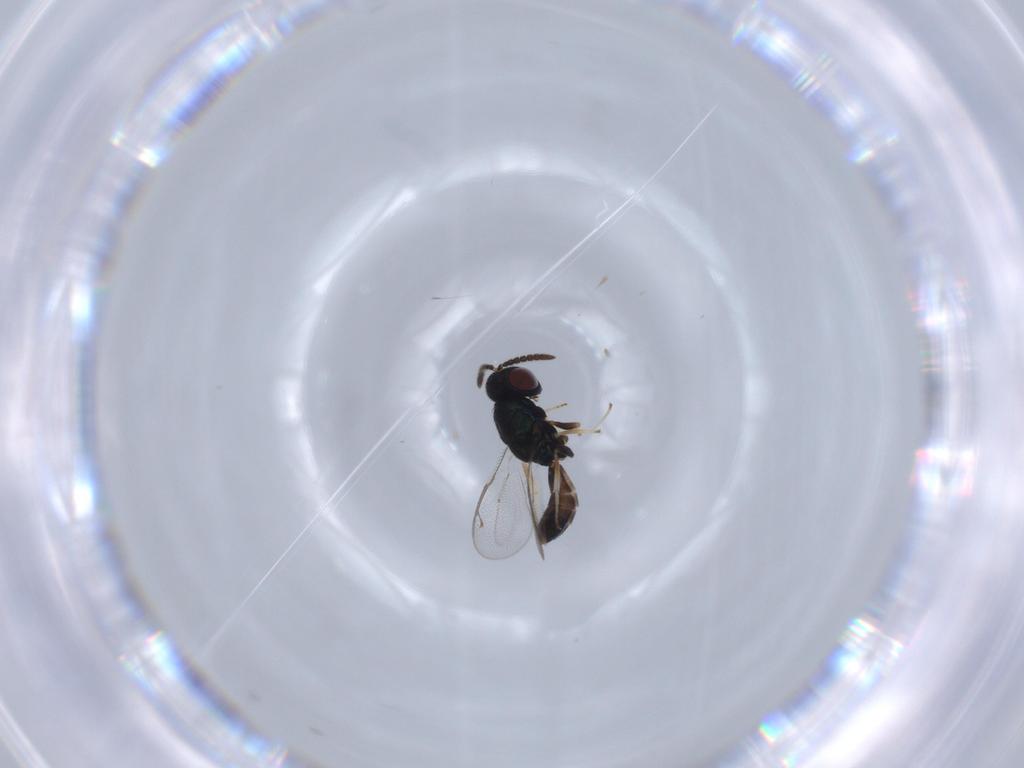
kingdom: Animalia
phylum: Arthropoda
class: Insecta
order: Hymenoptera
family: Pteromalidae
